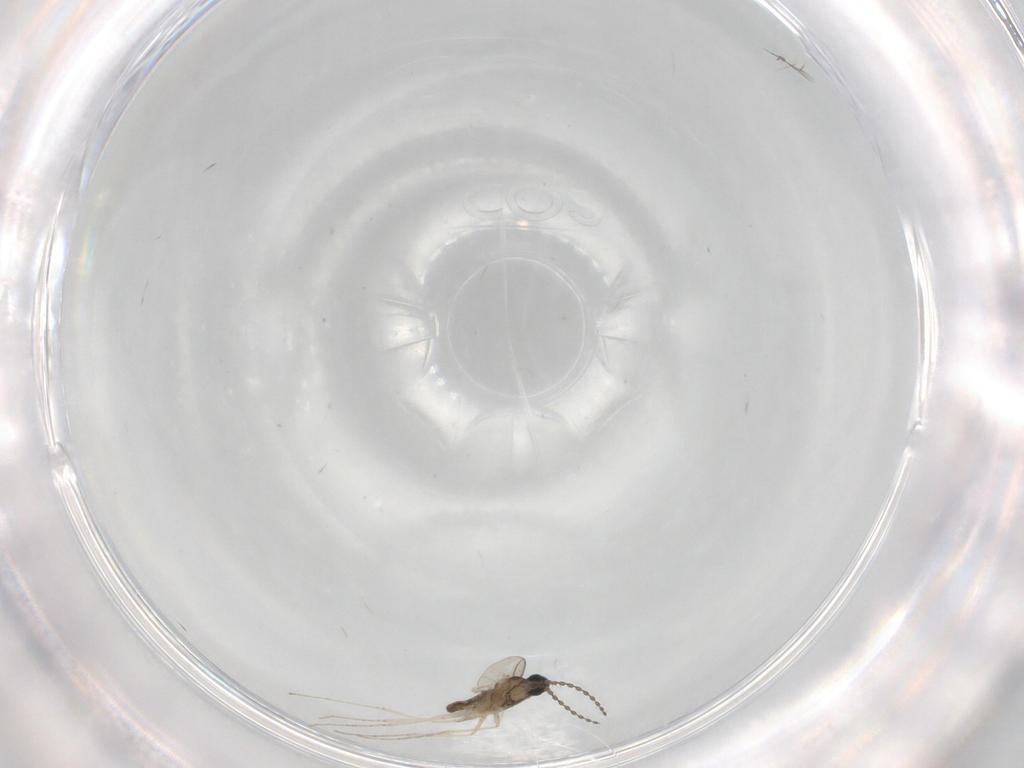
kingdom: Animalia
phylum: Arthropoda
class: Insecta
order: Diptera
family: Cecidomyiidae
